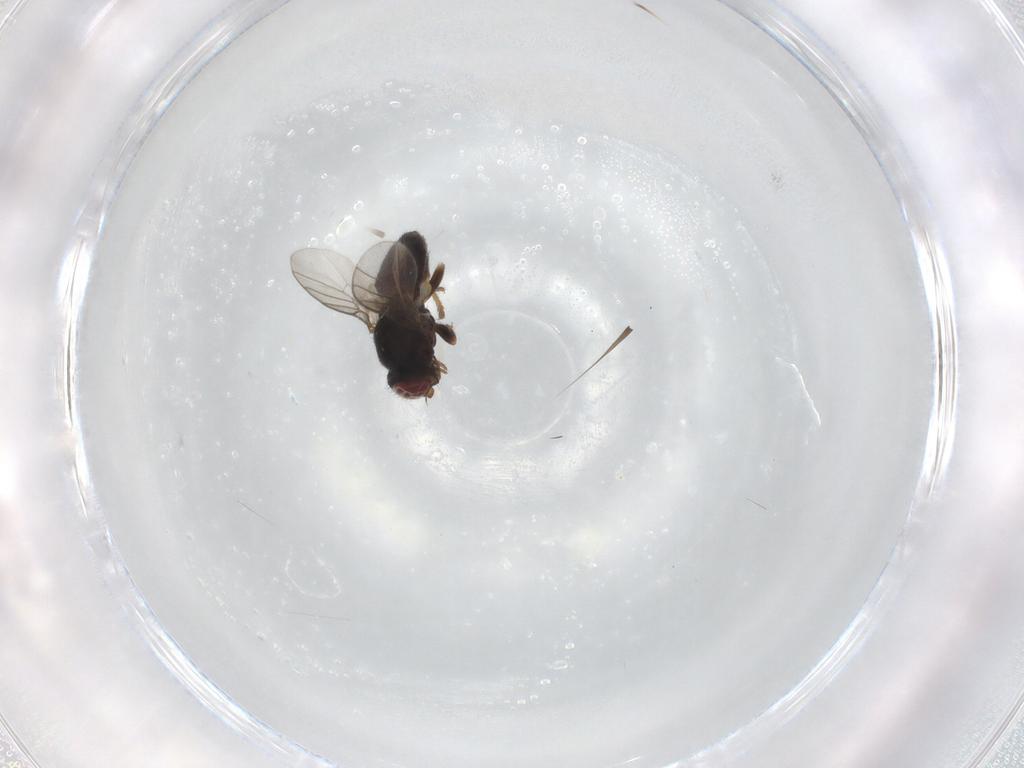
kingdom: Animalia
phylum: Arthropoda
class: Insecta
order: Diptera
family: Chloropidae
